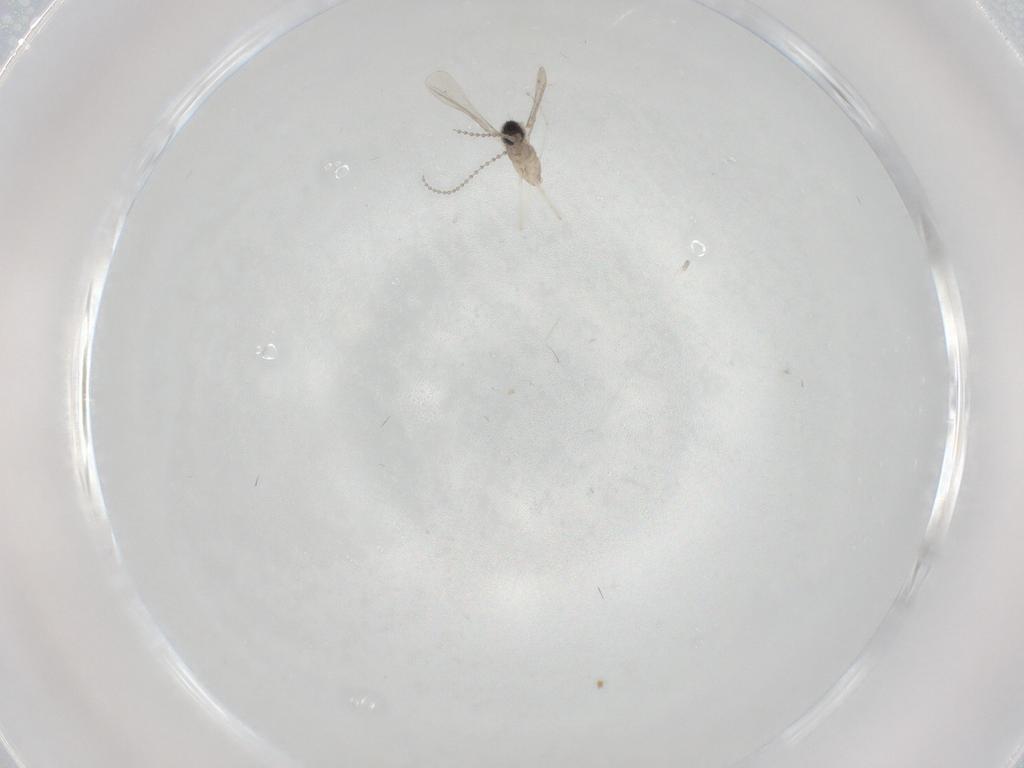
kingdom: Animalia
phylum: Arthropoda
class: Insecta
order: Diptera
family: Cecidomyiidae
